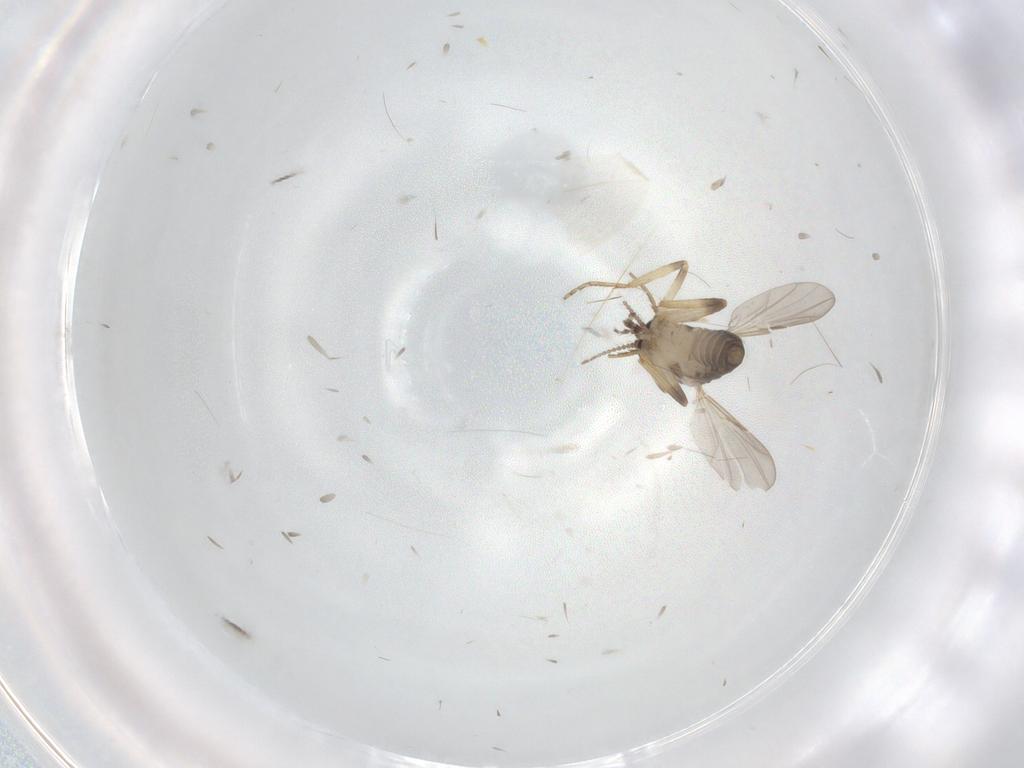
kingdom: Animalia
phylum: Arthropoda
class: Insecta
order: Diptera
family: Ceratopogonidae
